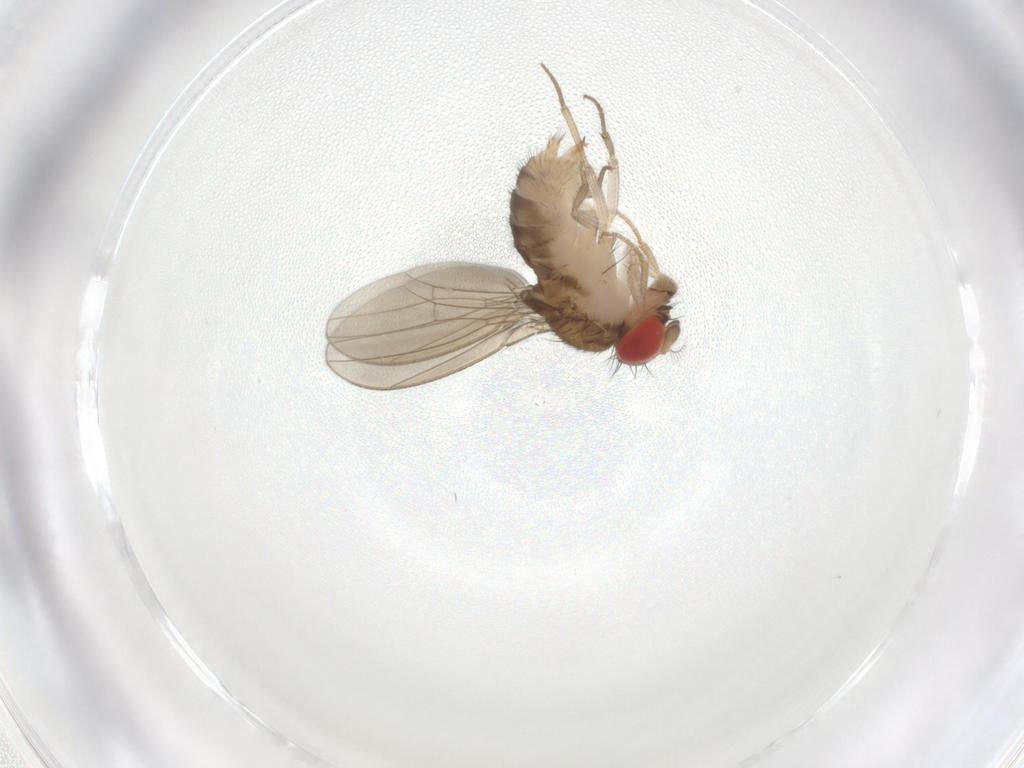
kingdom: Animalia
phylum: Arthropoda
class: Insecta
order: Diptera
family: Drosophilidae
